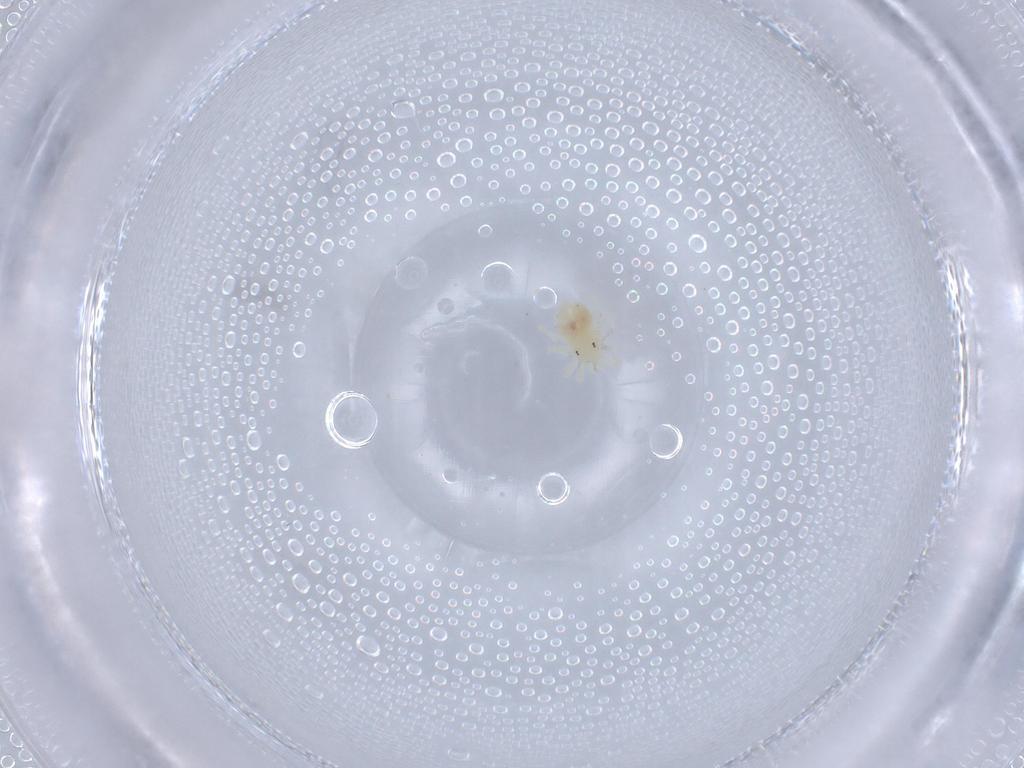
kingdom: Animalia
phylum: Arthropoda
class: Arachnida
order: Trombidiformes
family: Anystidae
